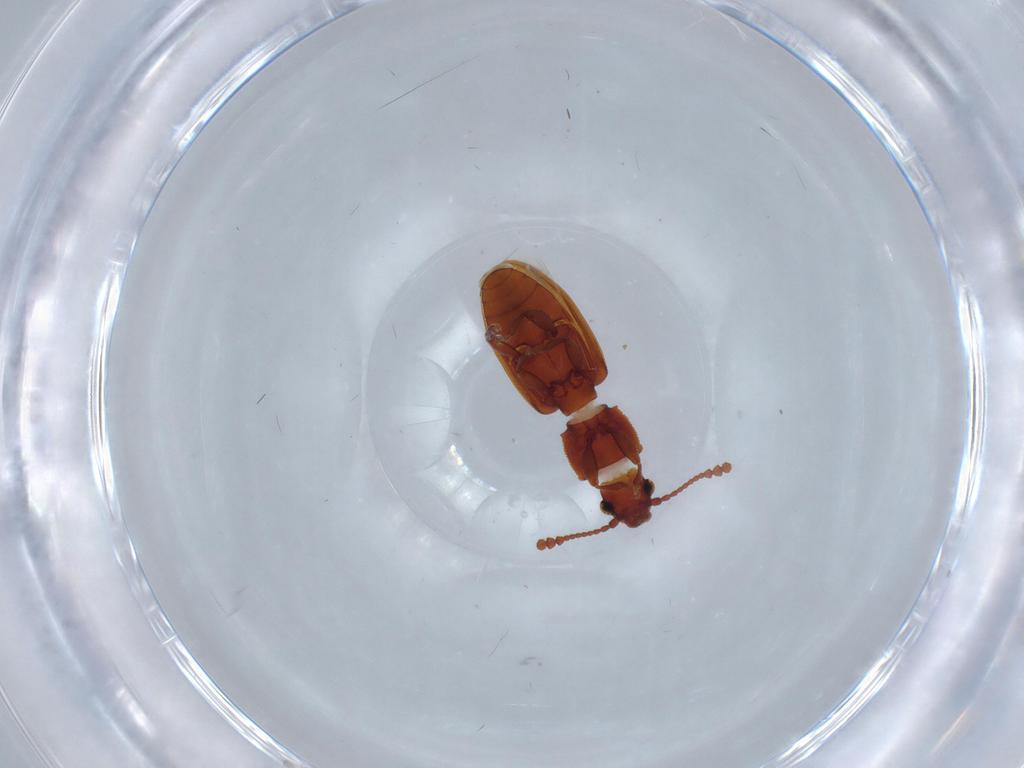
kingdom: Animalia
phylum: Arthropoda
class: Insecta
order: Coleoptera
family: Silvanidae
